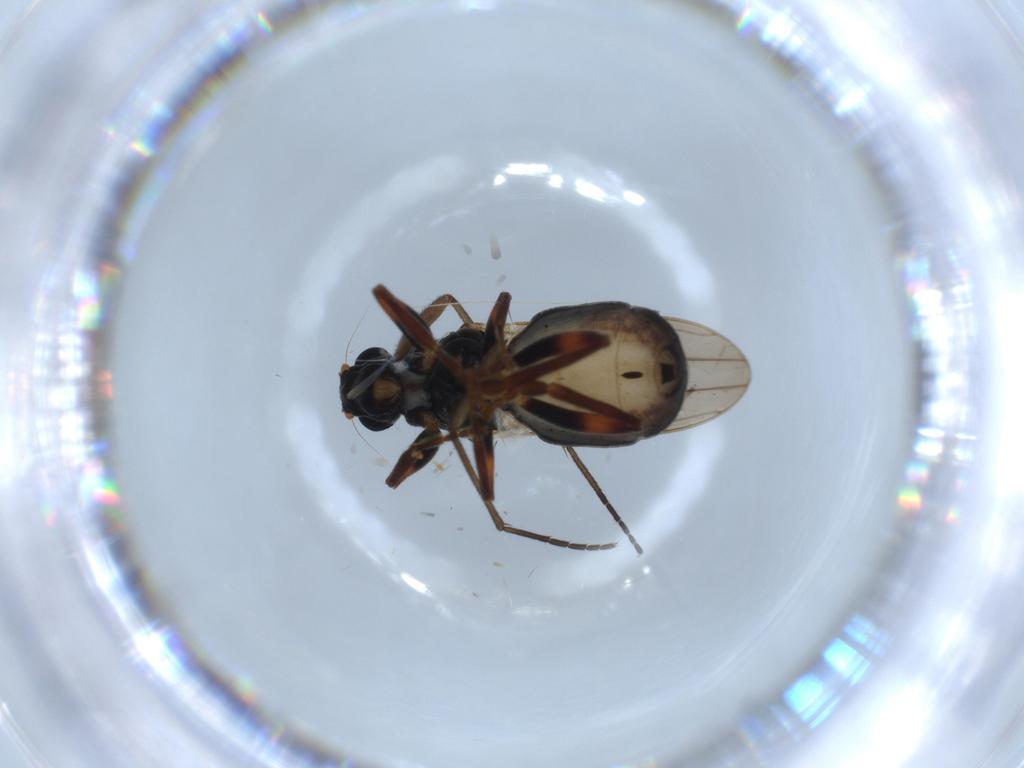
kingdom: Animalia
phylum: Arthropoda
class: Insecta
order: Diptera
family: Sphaeroceridae
